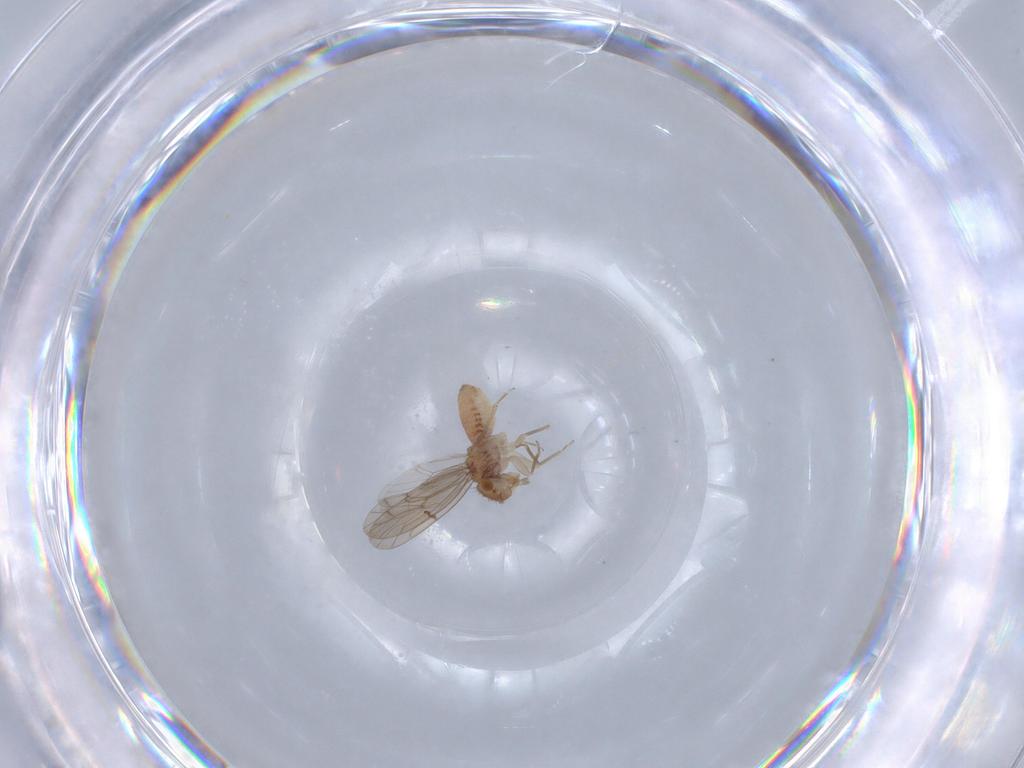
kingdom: Animalia
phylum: Arthropoda
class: Insecta
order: Psocodea
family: Ectopsocidae
